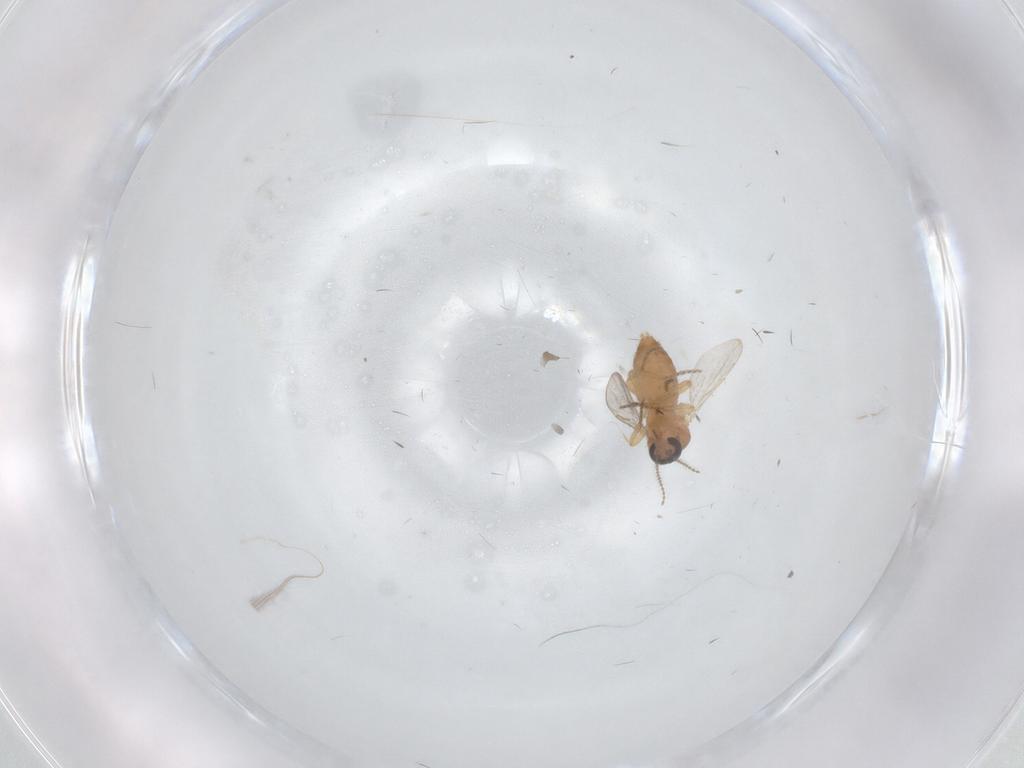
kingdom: Animalia
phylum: Arthropoda
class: Insecta
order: Diptera
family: Ceratopogonidae
